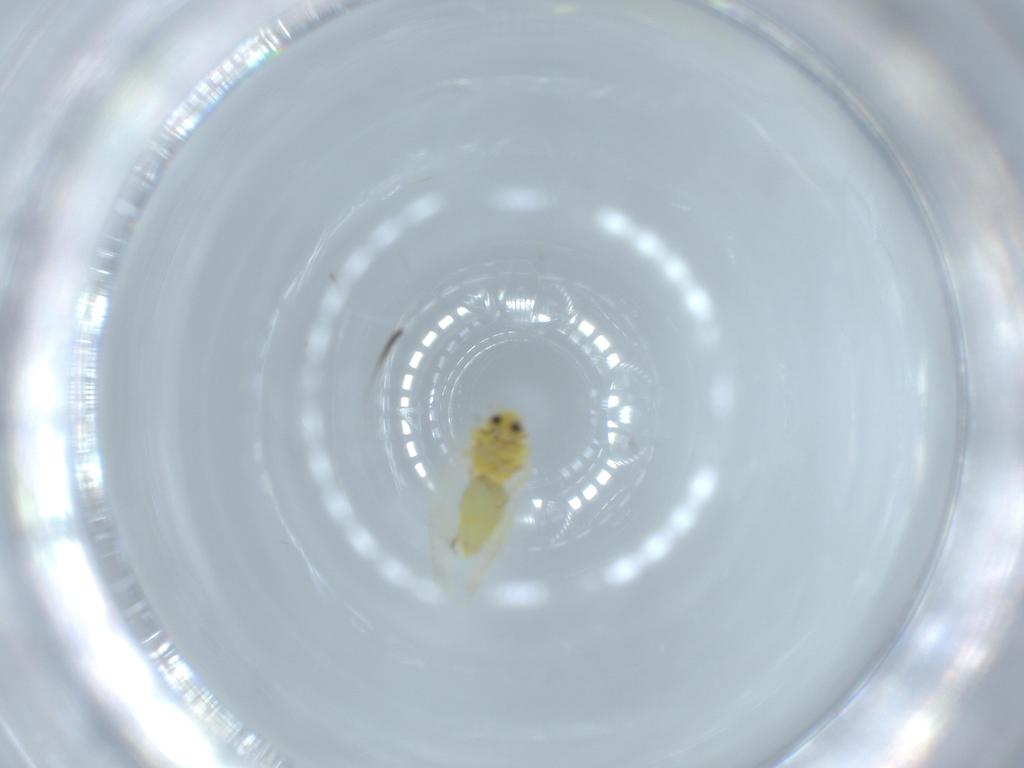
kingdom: Animalia
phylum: Arthropoda
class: Insecta
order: Hemiptera
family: Aleyrodidae
